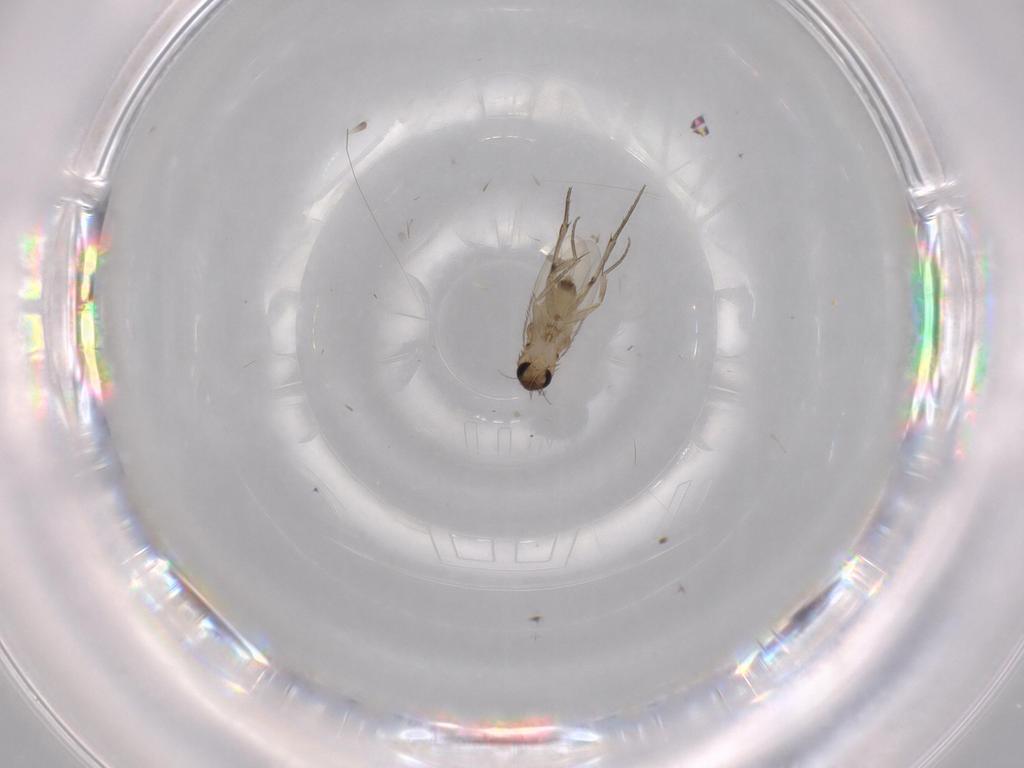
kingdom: Animalia
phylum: Arthropoda
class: Insecta
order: Diptera
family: Phoridae
